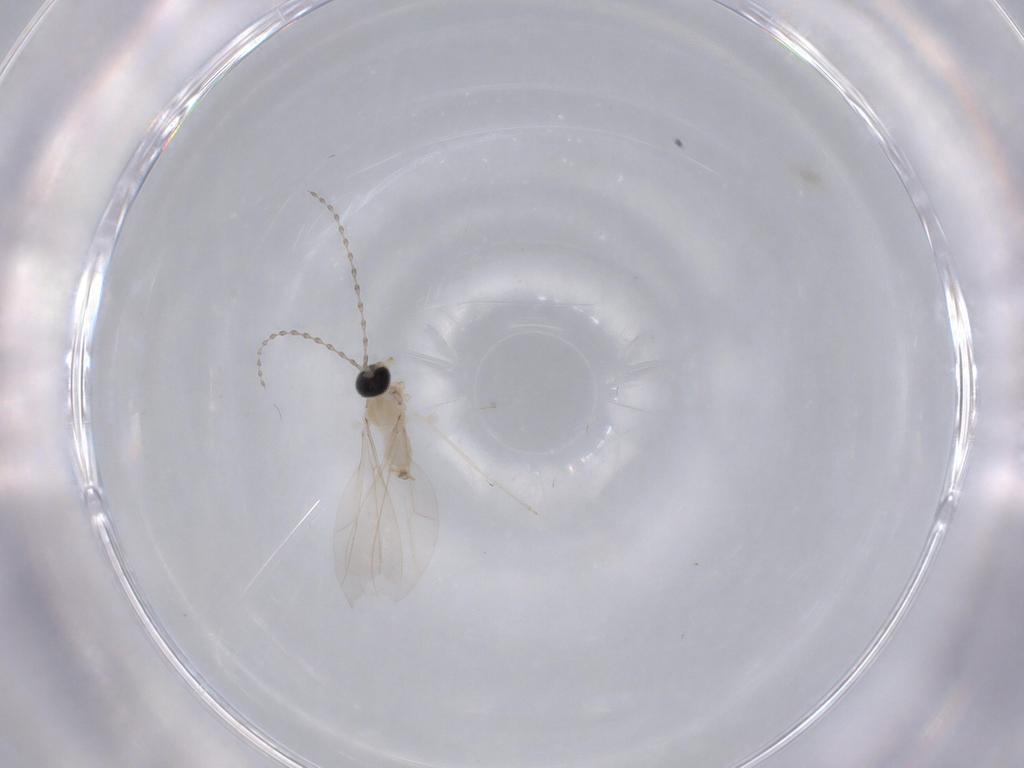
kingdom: Animalia
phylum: Arthropoda
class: Insecta
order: Diptera
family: Cecidomyiidae
